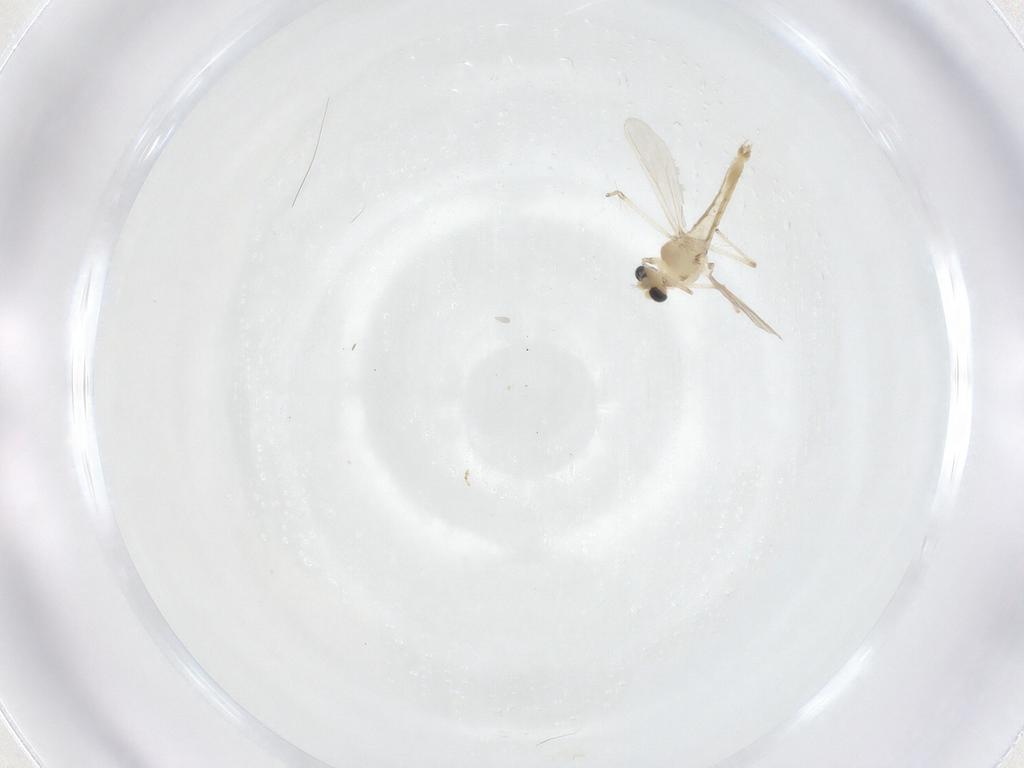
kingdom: Animalia
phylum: Arthropoda
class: Insecta
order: Diptera
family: Chironomidae
